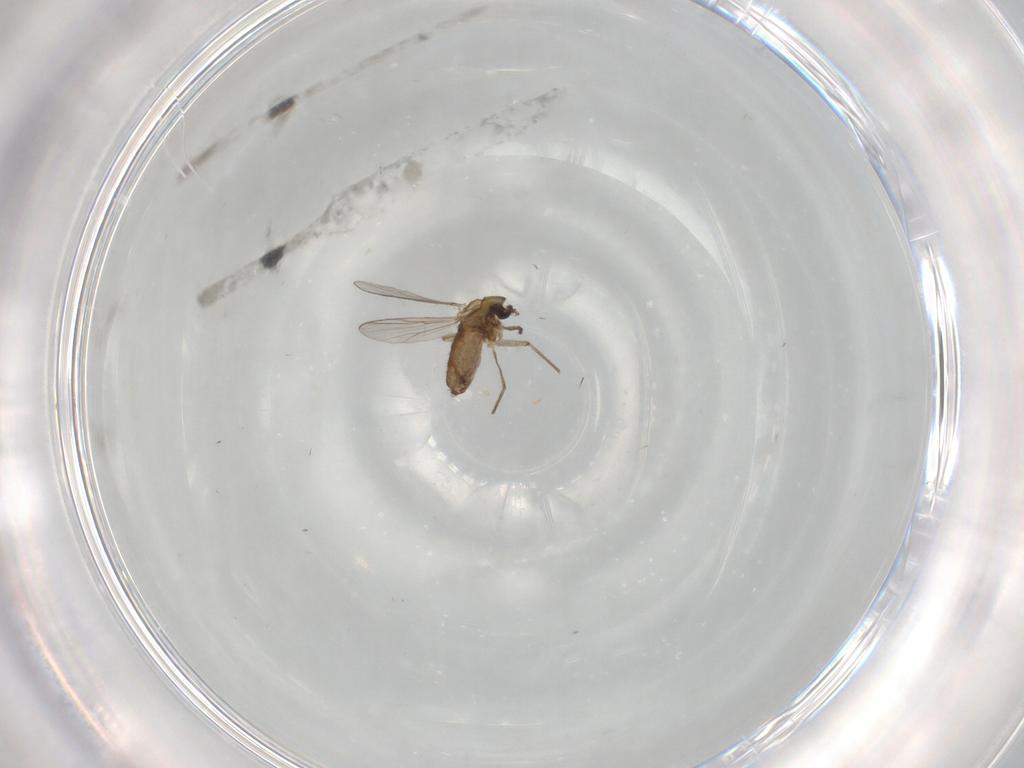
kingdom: Animalia
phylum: Arthropoda
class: Insecta
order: Diptera
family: Chironomidae
